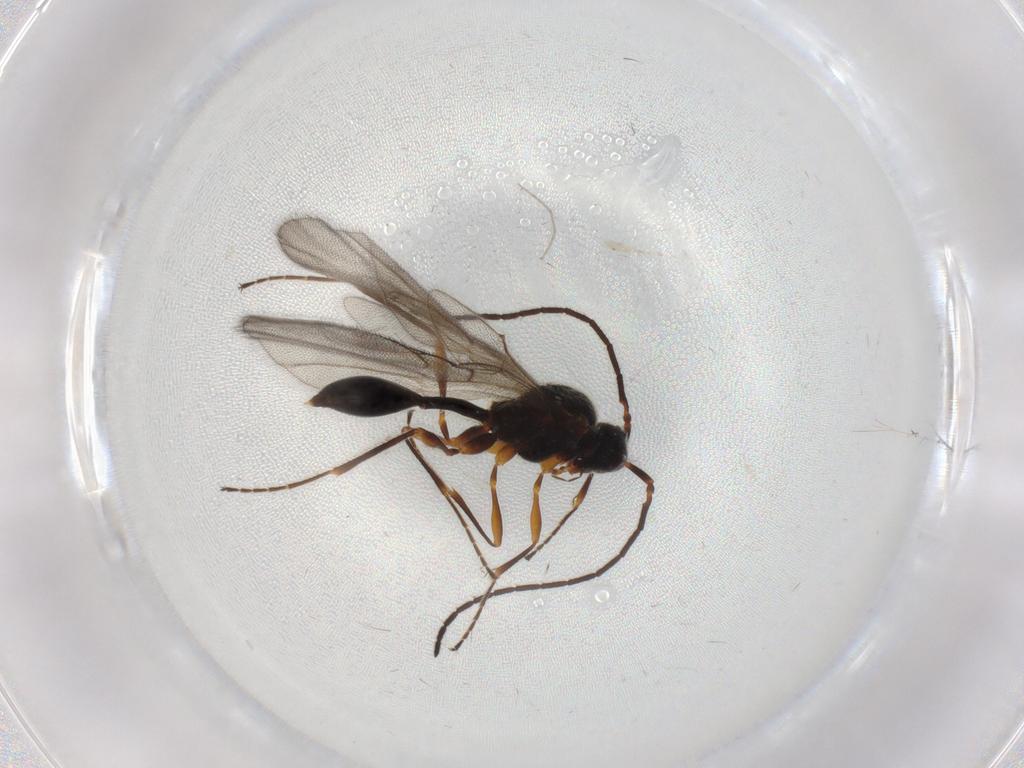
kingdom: Animalia
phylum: Arthropoda
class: Insecta
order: Hymenoptera
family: Diapriidae
